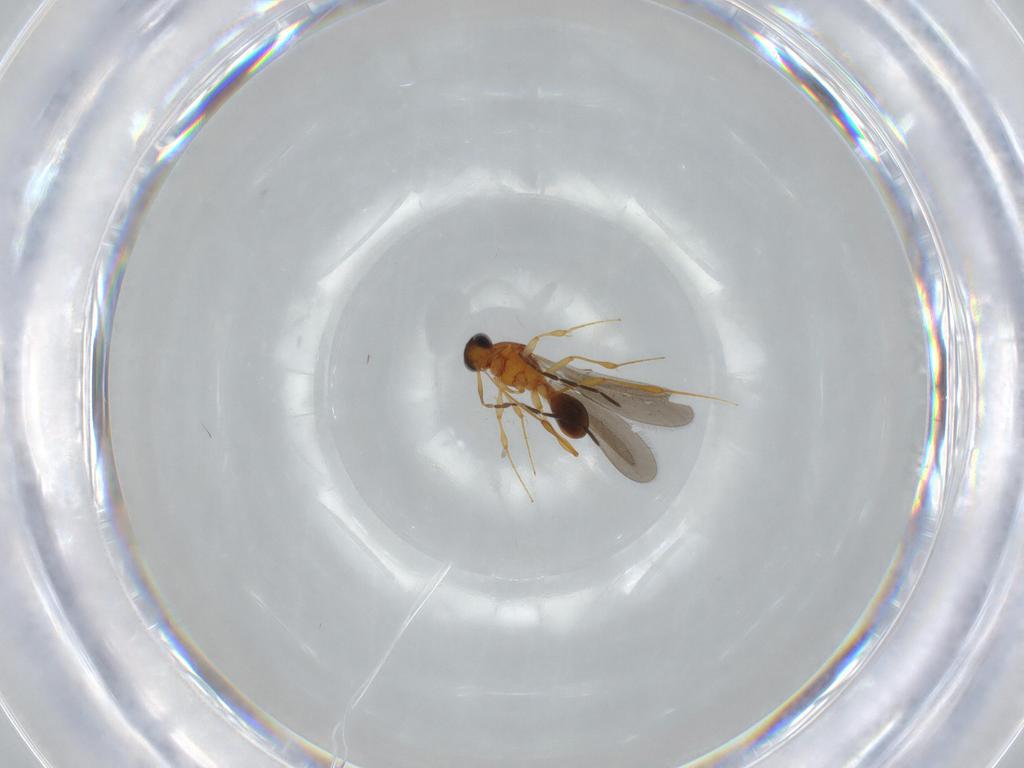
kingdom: Animalia
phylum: Arthropoda
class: Insecta
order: Hymenoptera
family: Platygastridae
